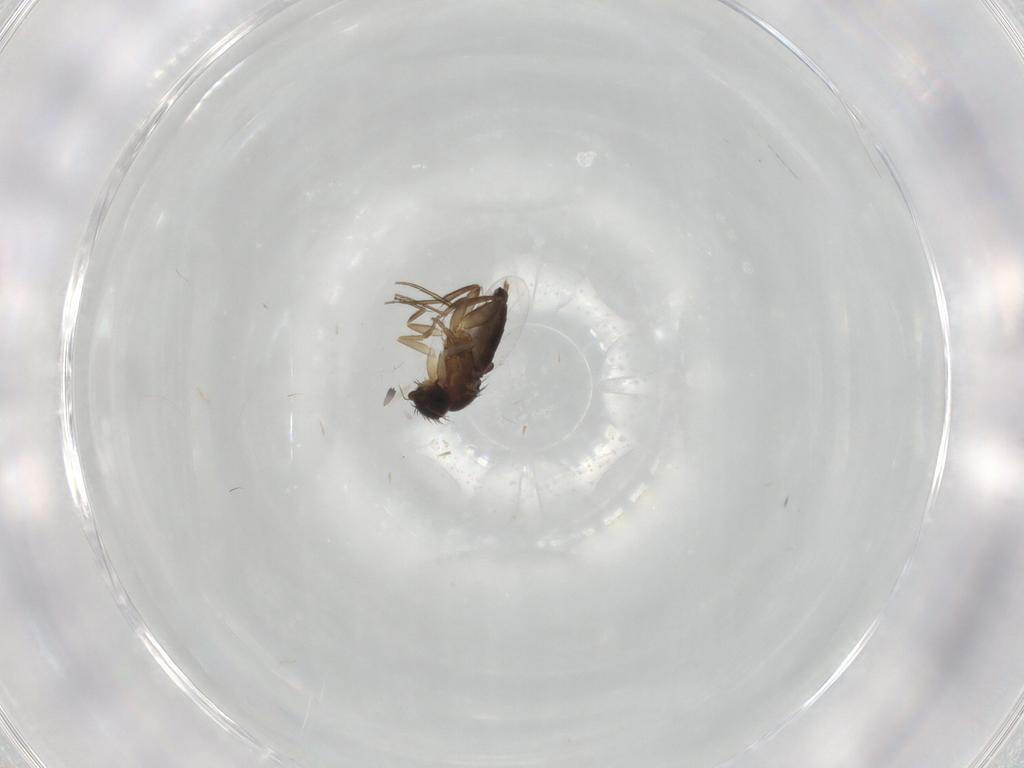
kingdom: Animalia
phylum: Arthropoda
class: Insecta
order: Diptera
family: Phoridae
